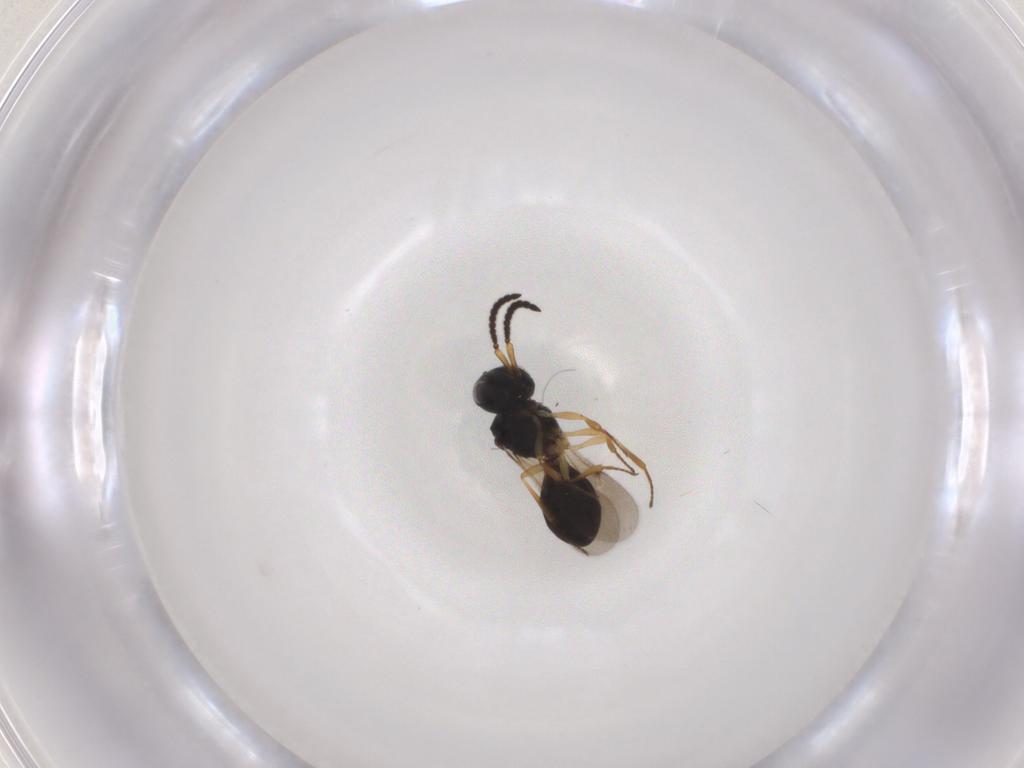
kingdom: Animalia
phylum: Arthropoda
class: Insecta
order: Hymenoptera
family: Scelionidae
